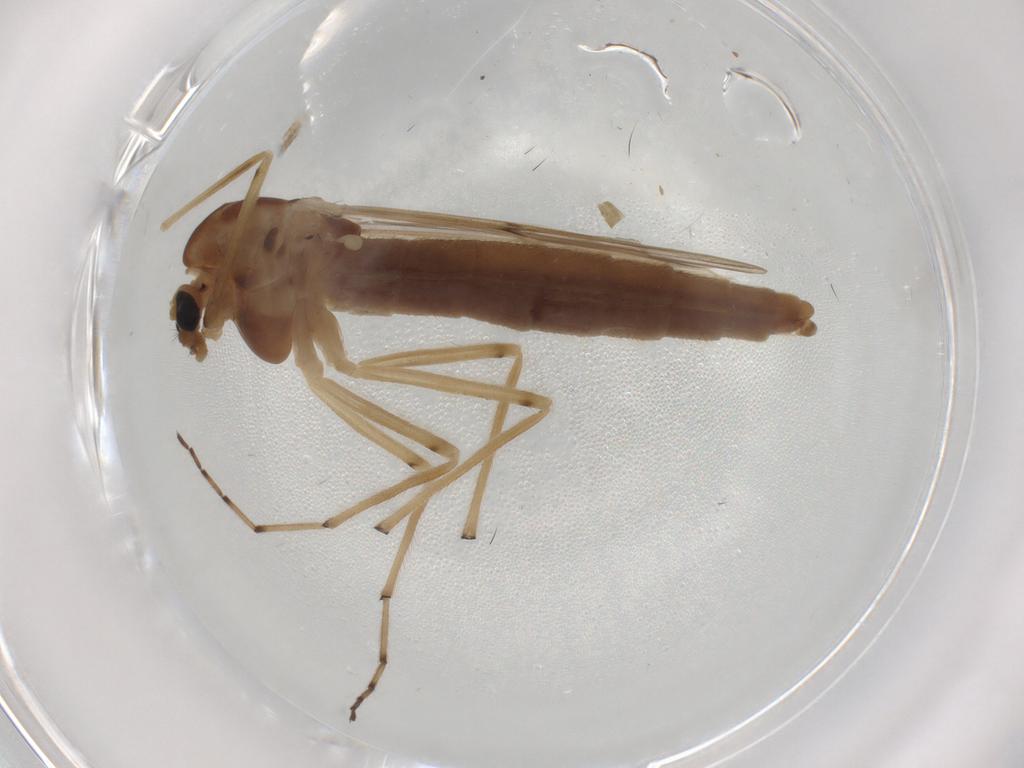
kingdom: Animalia
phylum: Arthropoda
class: Insecta
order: Diptera
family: Chironomidae
